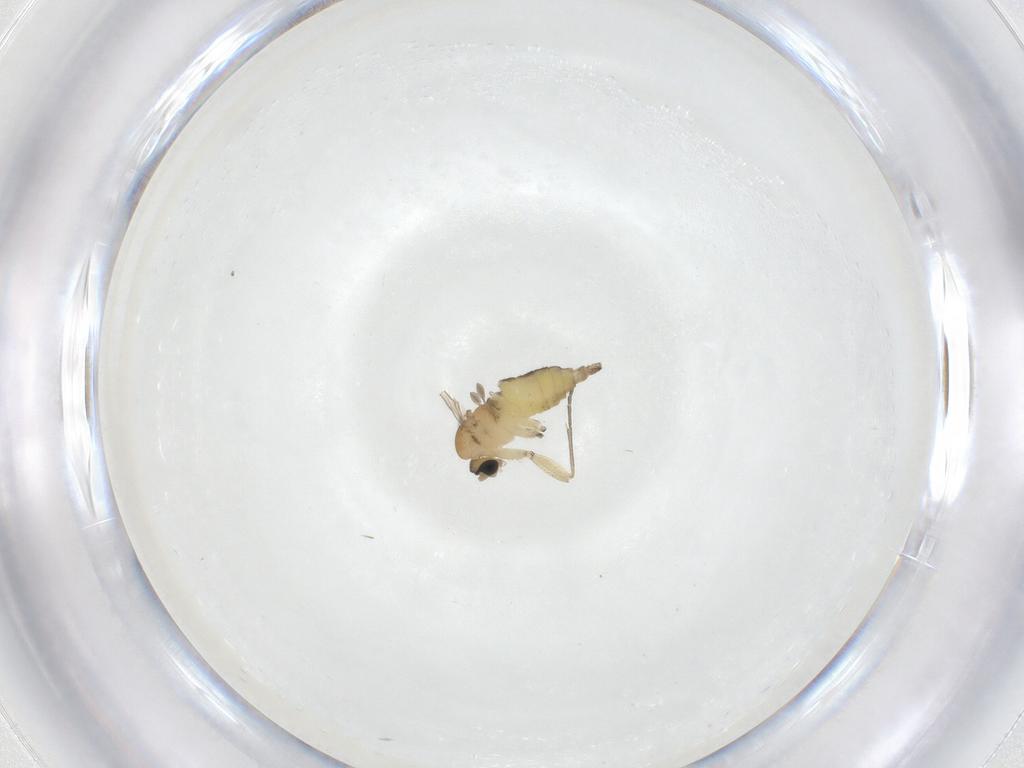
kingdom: Animalia
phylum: Arthropoda
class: Insecta
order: Diptera
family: Sciaridae
